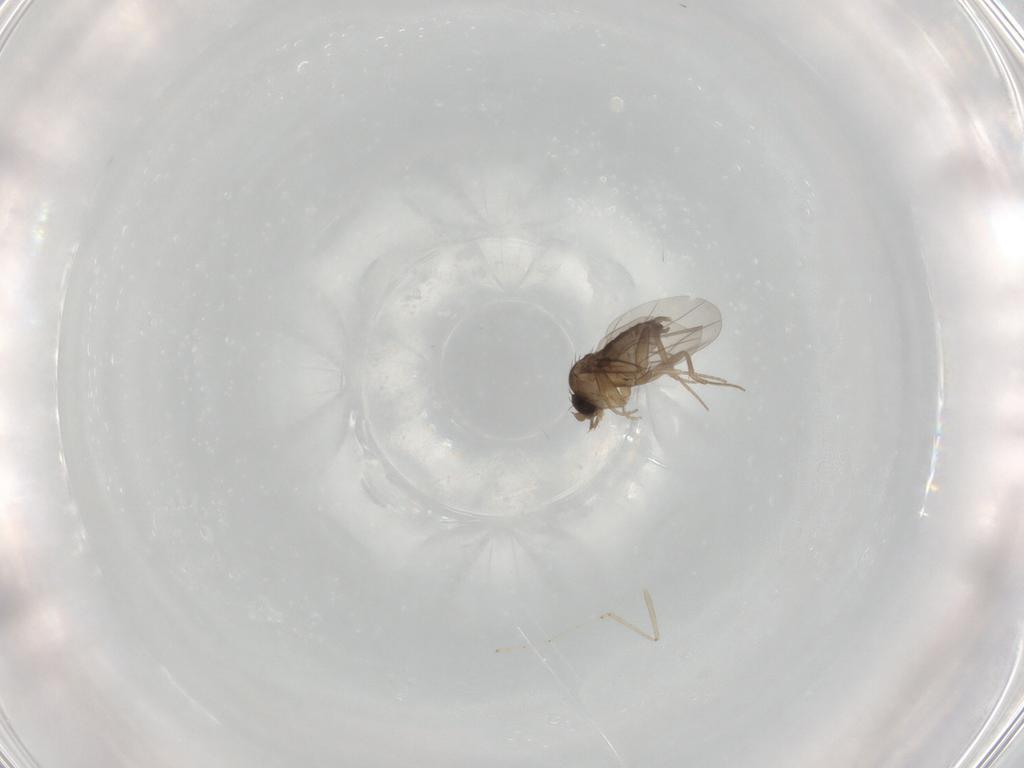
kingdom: Animalia
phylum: Arthropoda
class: Insecta
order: Diptera
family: Phoridae
